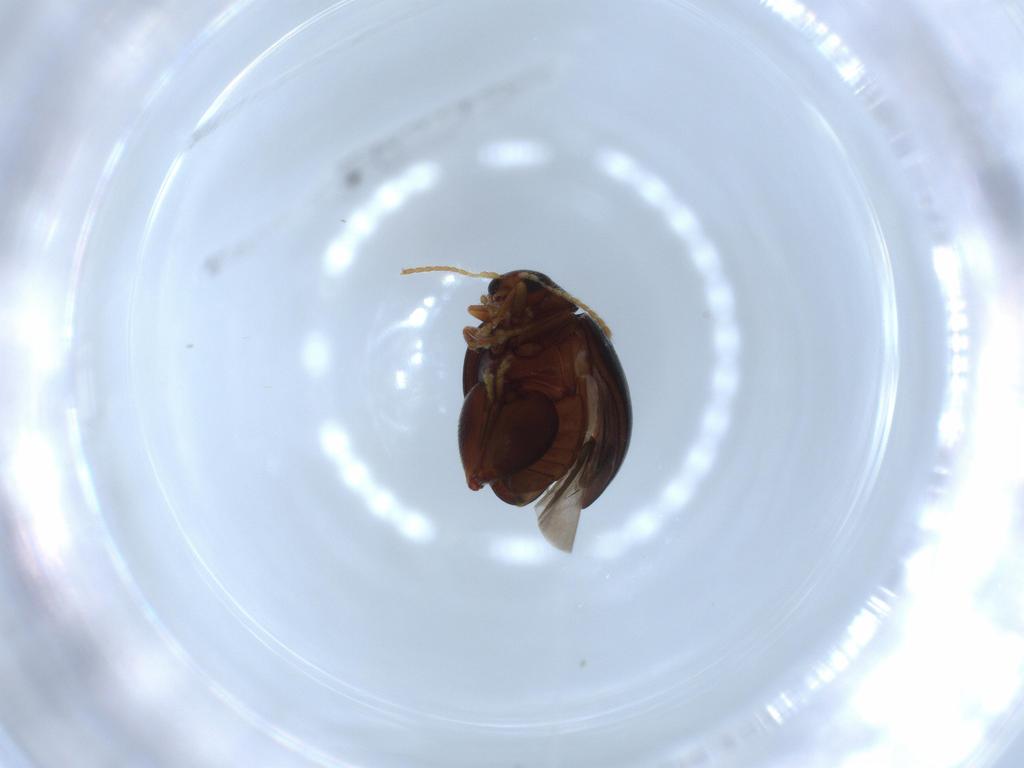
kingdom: Animalia
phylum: Arthropoda
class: Insecta
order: Coleoptera
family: Chrysomelidae
